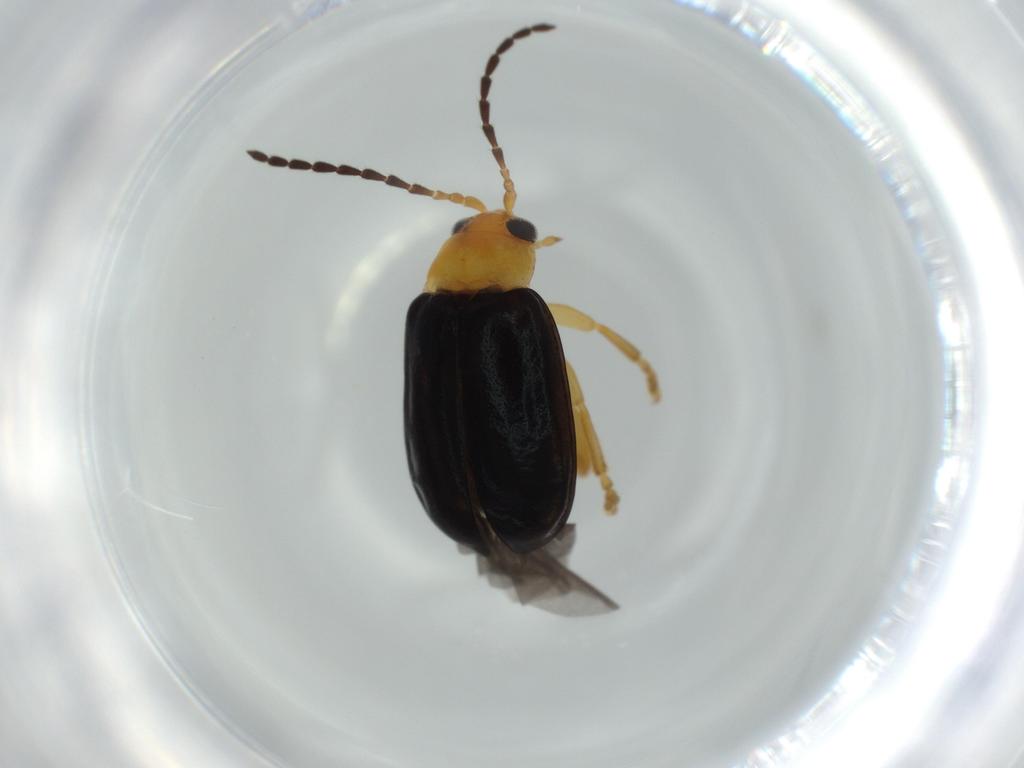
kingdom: Animalia
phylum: Arthropoda
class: Insecta
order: Coleoptera
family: Chrysomelidae
